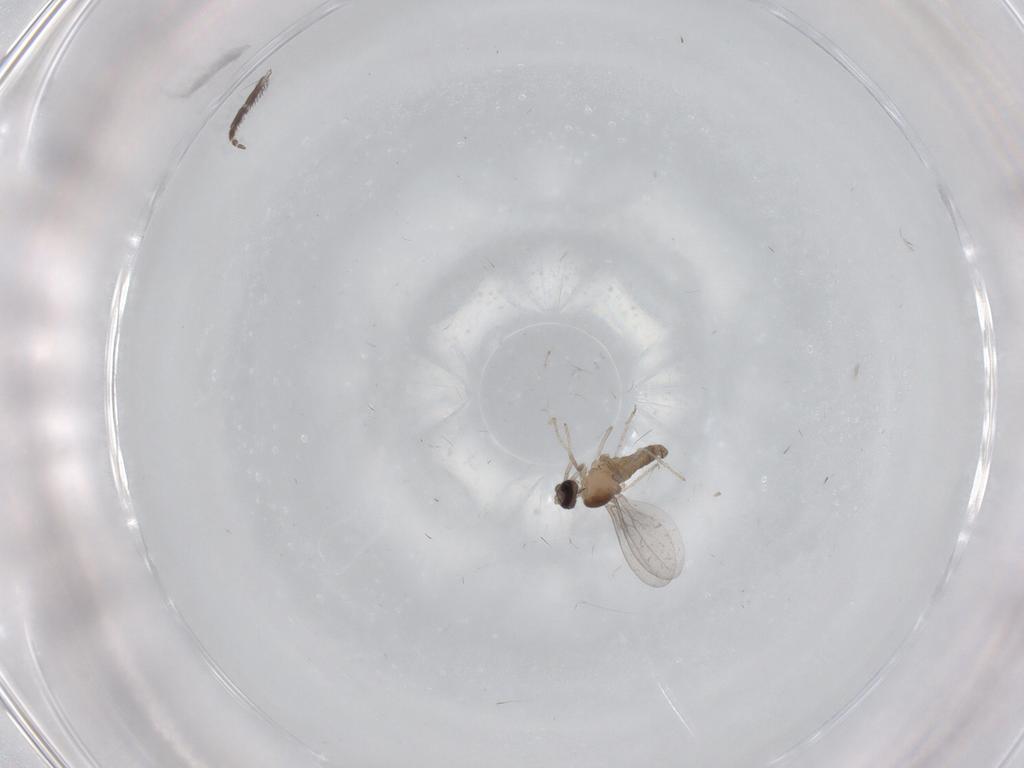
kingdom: Animalia
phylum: Arthropoda
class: Insecta
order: Diptera
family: Cecidomyiidae
